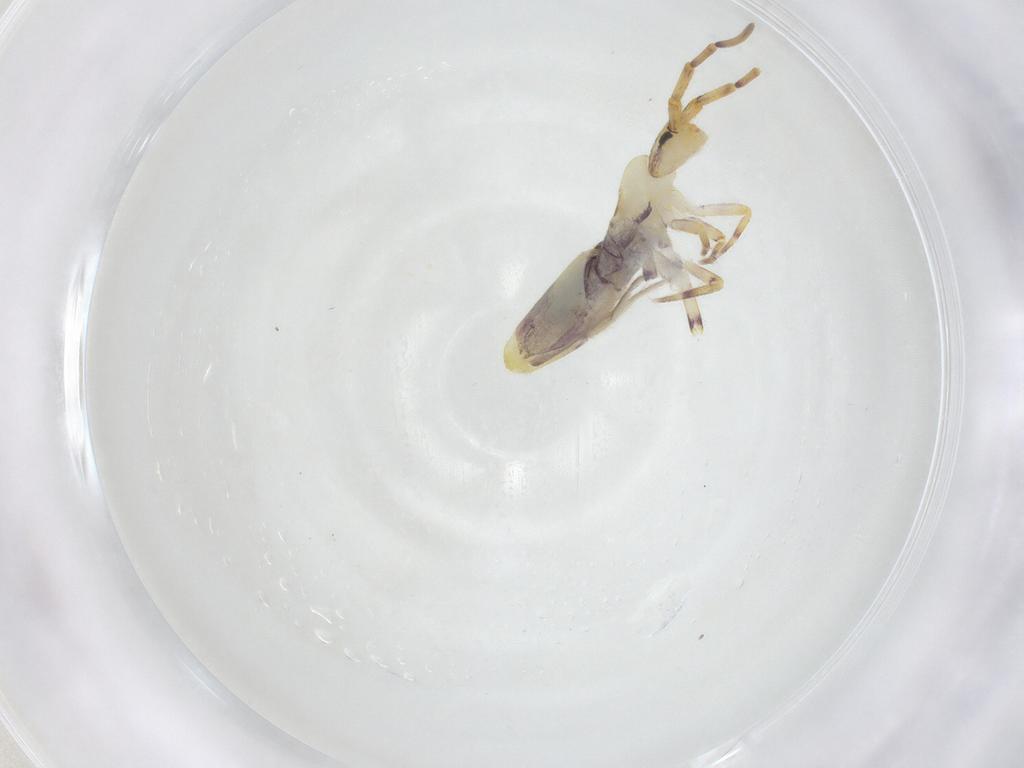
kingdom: Animalia
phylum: Arthropoda
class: Collembola
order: Entomobryomorpha
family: Entomobryidae
